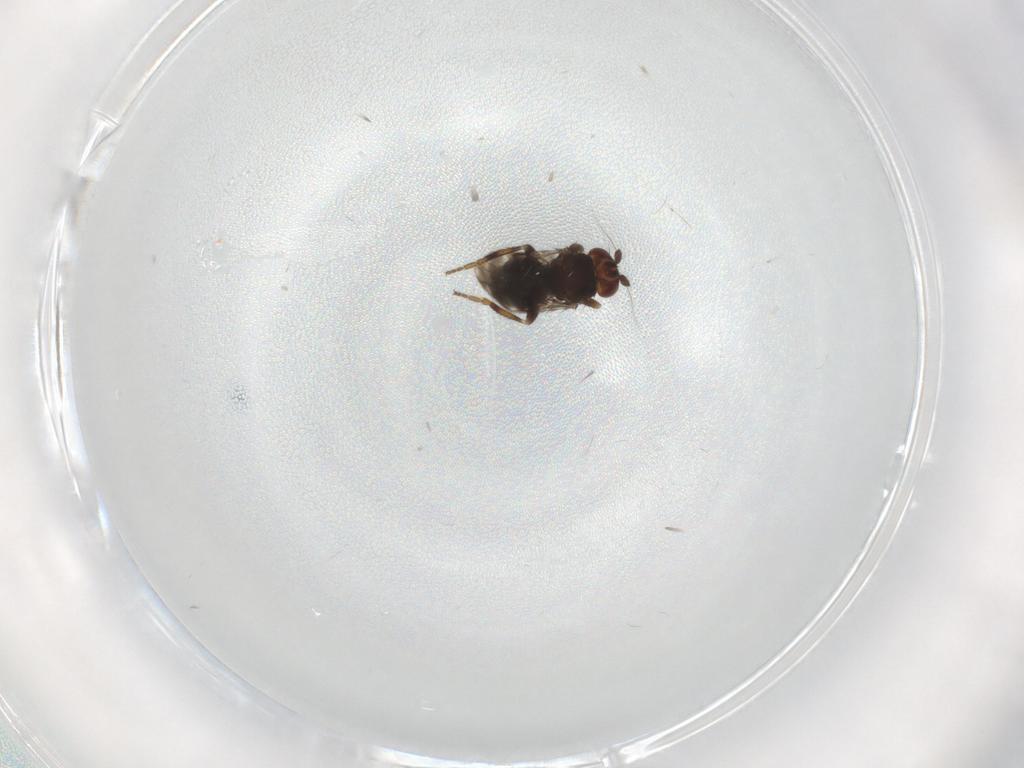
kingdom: Animalia
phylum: Arthropoda
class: Insecta
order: Diptera
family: Sphaeroceridae
